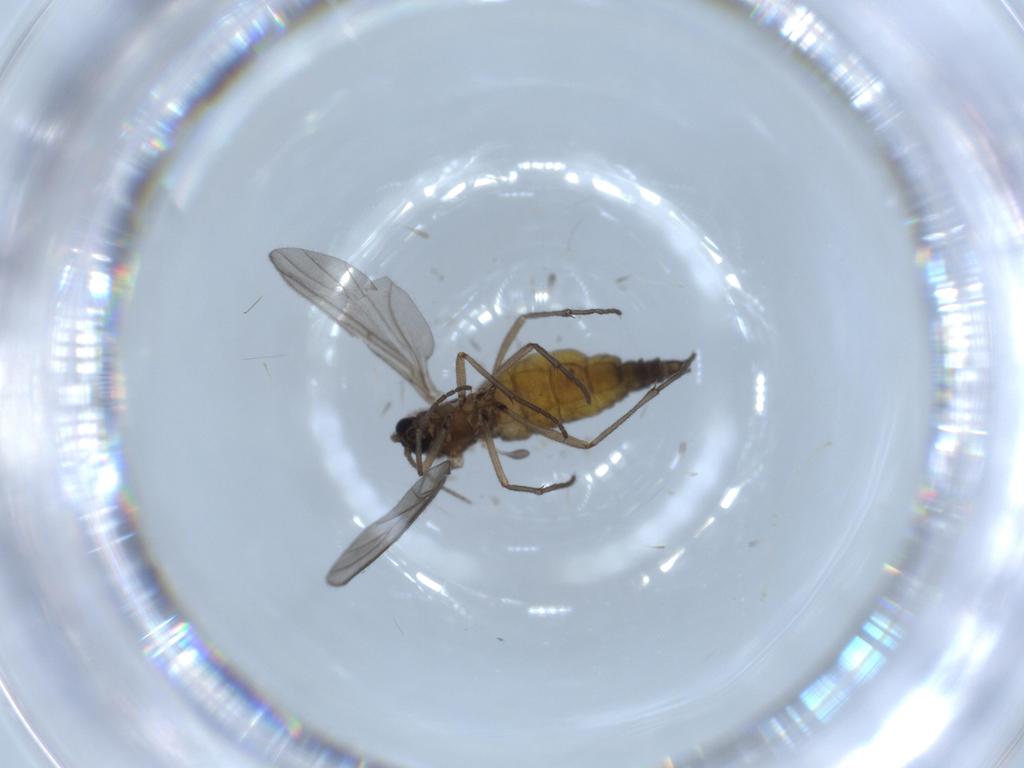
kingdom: Animalia
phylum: Arthropoda
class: Insecta
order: Diptera
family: Sciaridae
